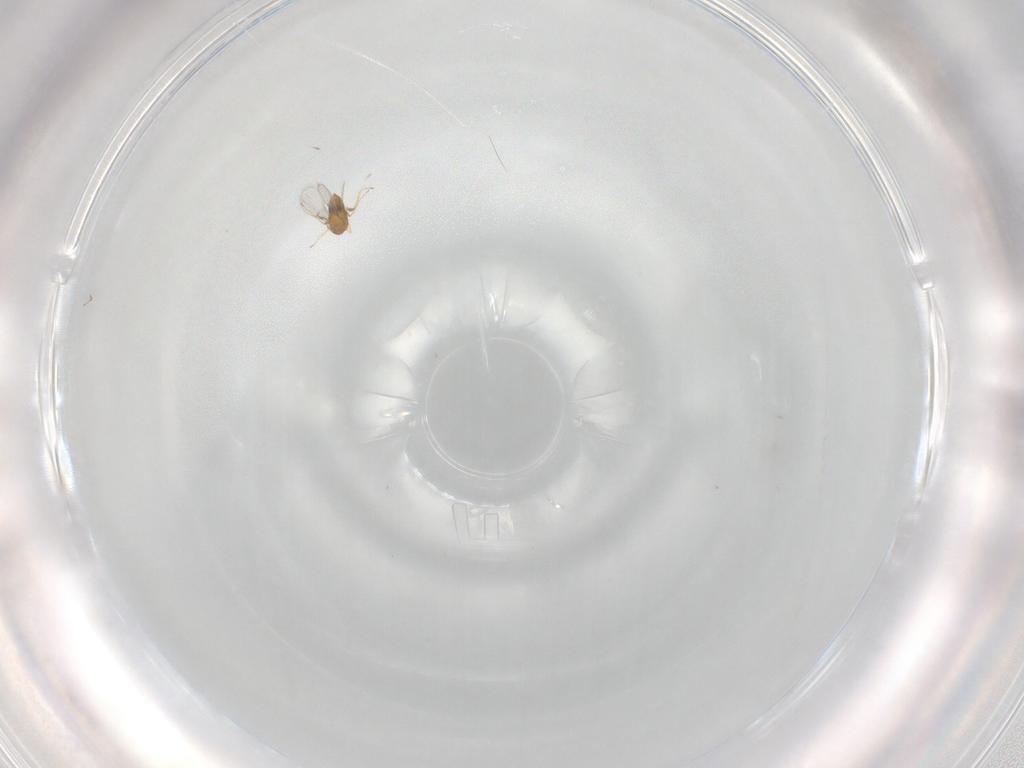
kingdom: Animalia
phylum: Arthropoda
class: Insecta
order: Hymenoptera
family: Trichogrammatidae
